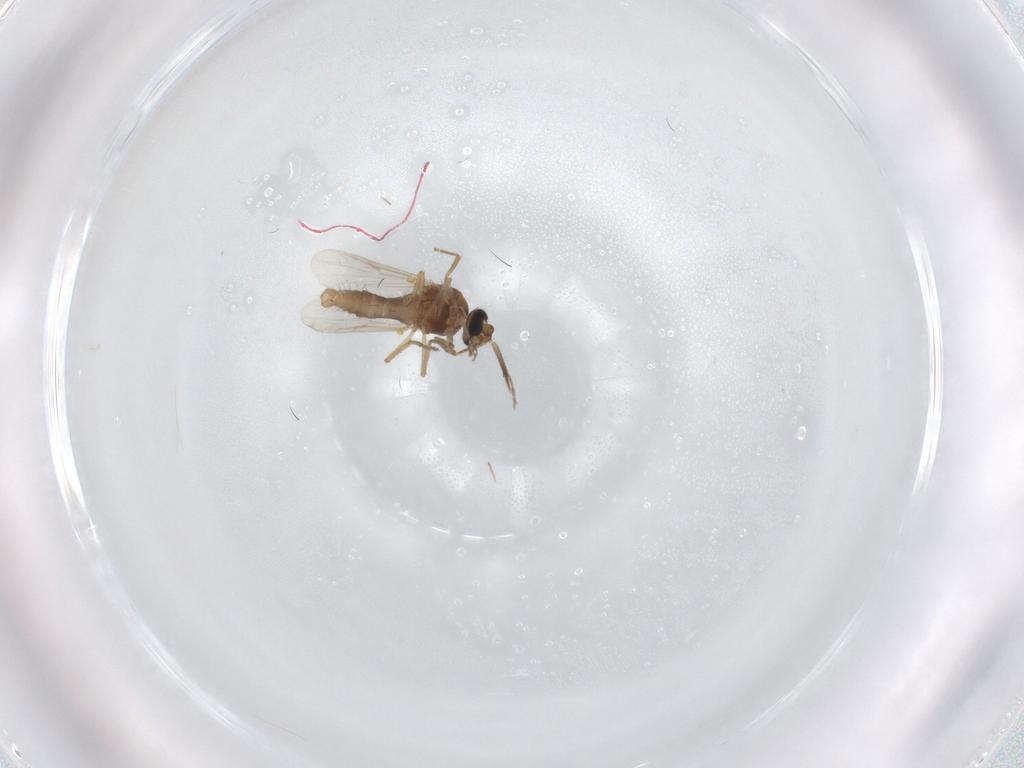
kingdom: Animalia
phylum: Arthropoda
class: Insecta
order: Diptera
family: Ceratopogonidae
